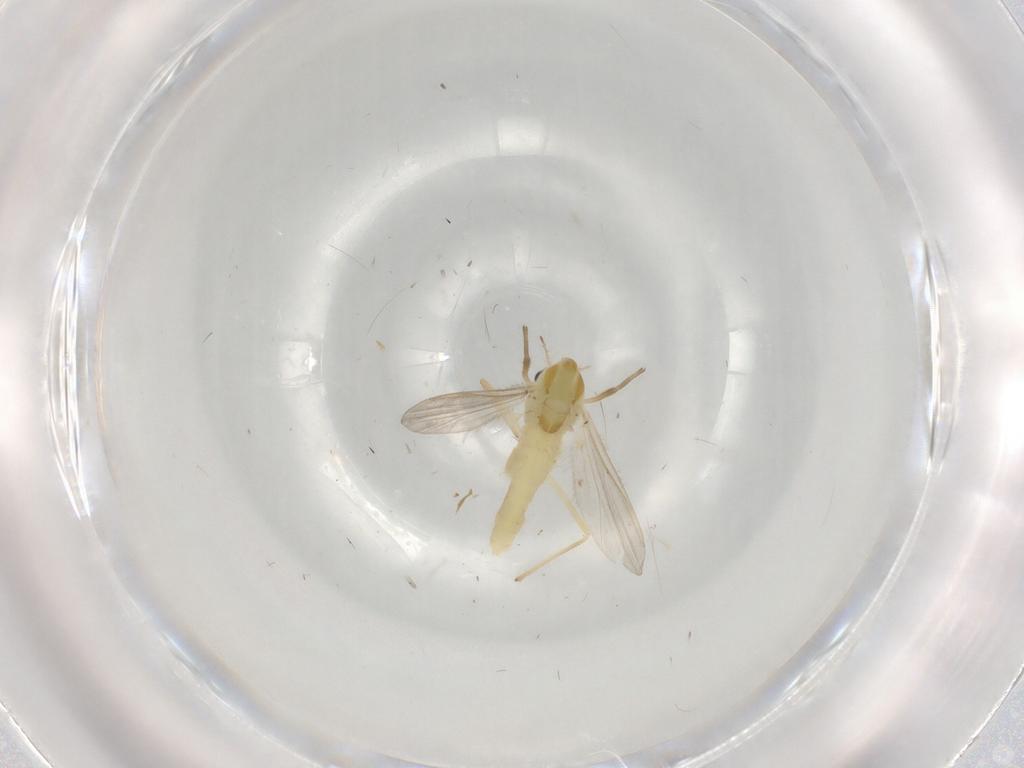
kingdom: Animalia
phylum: Arthropoda
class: Insecta
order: Diptera
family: Chironomidae
